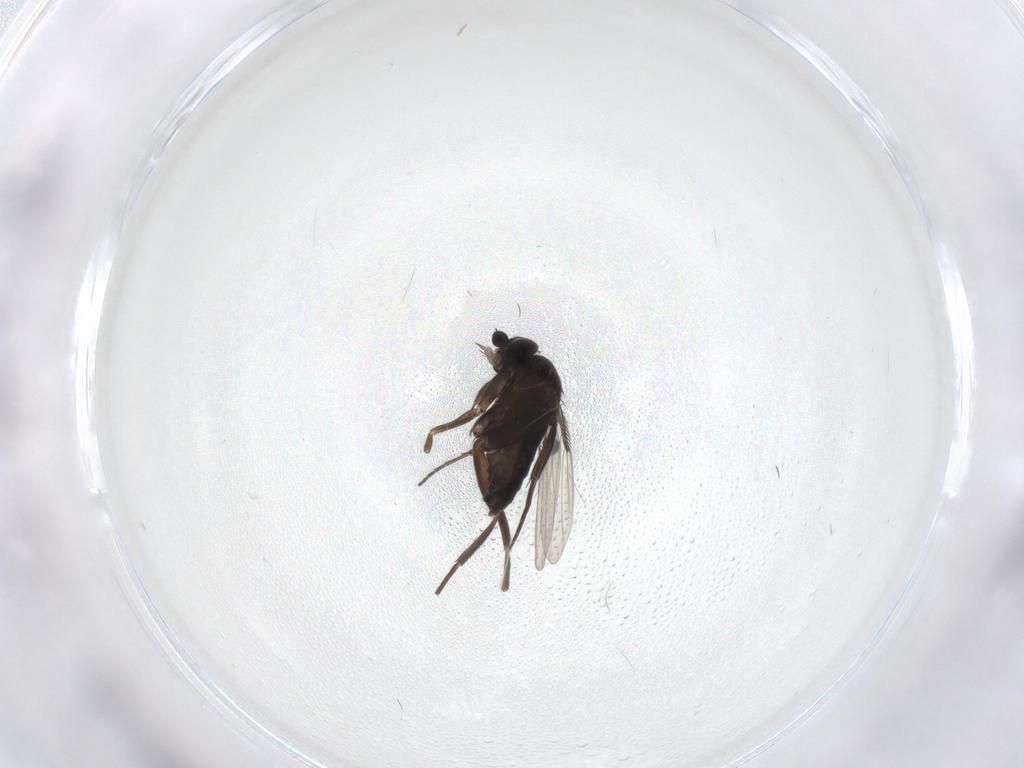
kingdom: Animalia
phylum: Arthropoda
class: Insecta
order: Diptera
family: Phoridae
